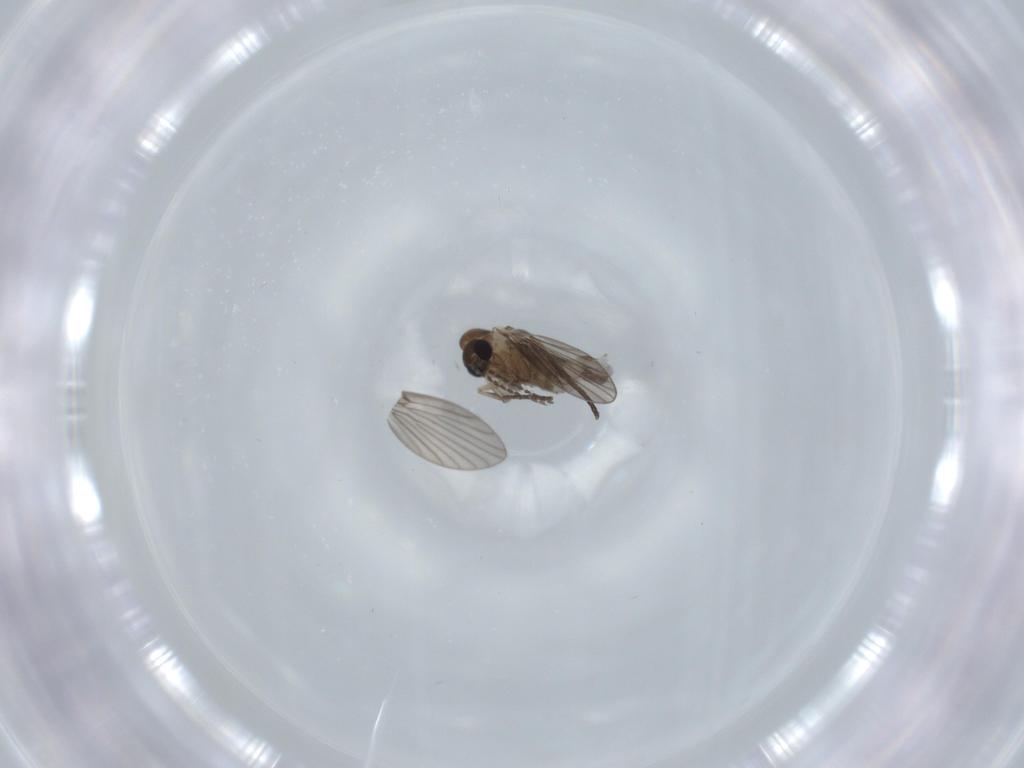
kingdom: Animalia
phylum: Arthropoda
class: Insecta
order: Diptera
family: Psychodidae
